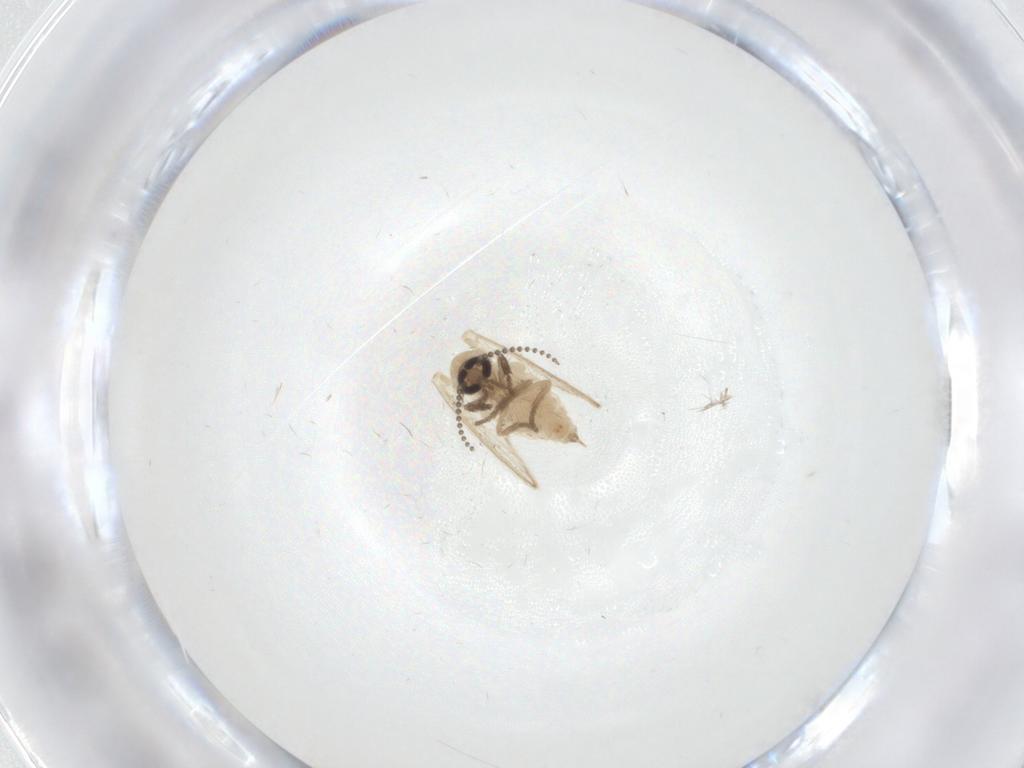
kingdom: Animalia
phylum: Arthropoda
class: Insecta
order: Diptera
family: Psychodidae
